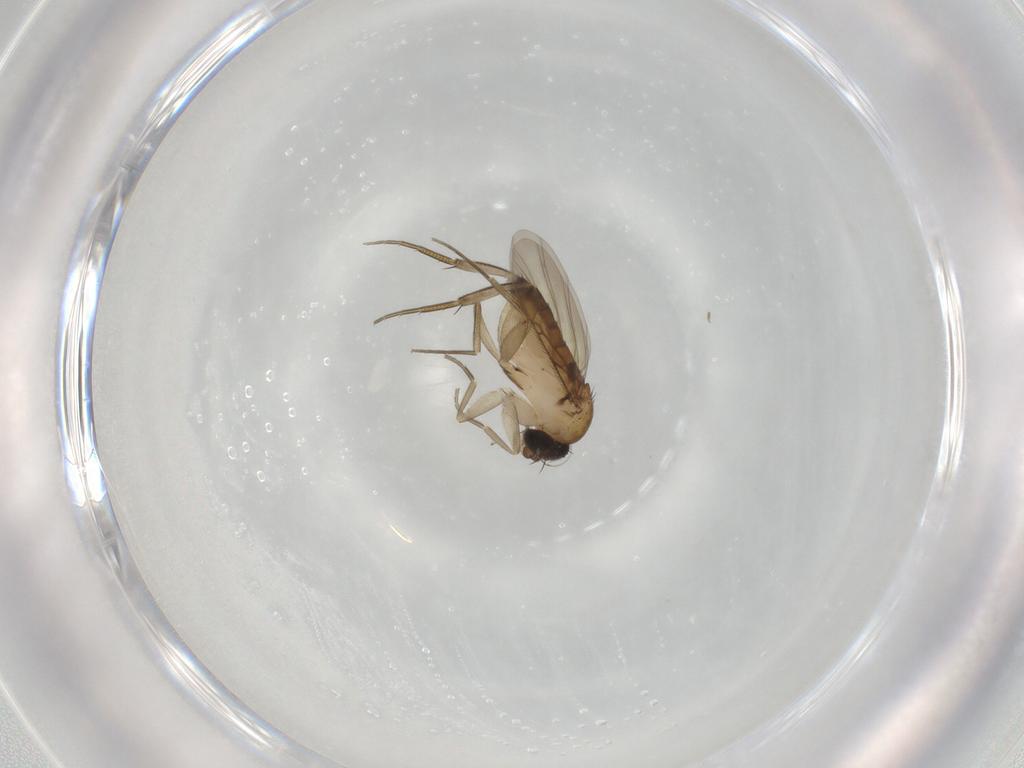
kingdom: Animalia
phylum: Arthropoda
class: Insecta
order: Diptera
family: Phoridae
